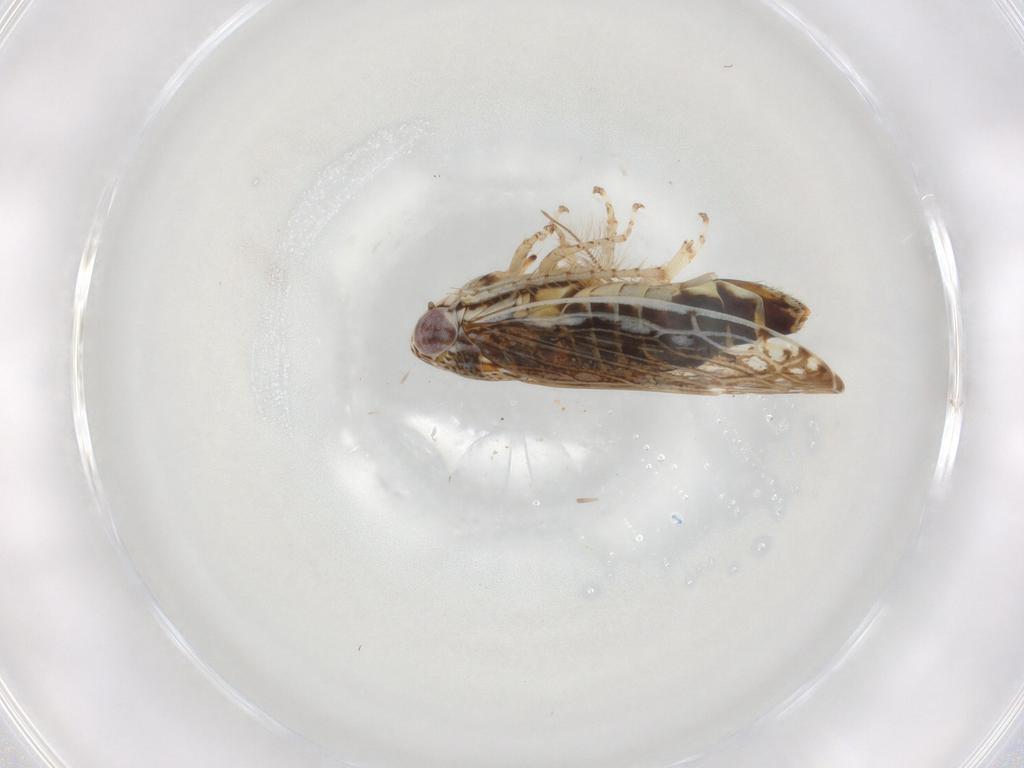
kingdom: Animalia
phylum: Arthropoda
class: Insecta
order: Hemiptera
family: Cicadellidae
